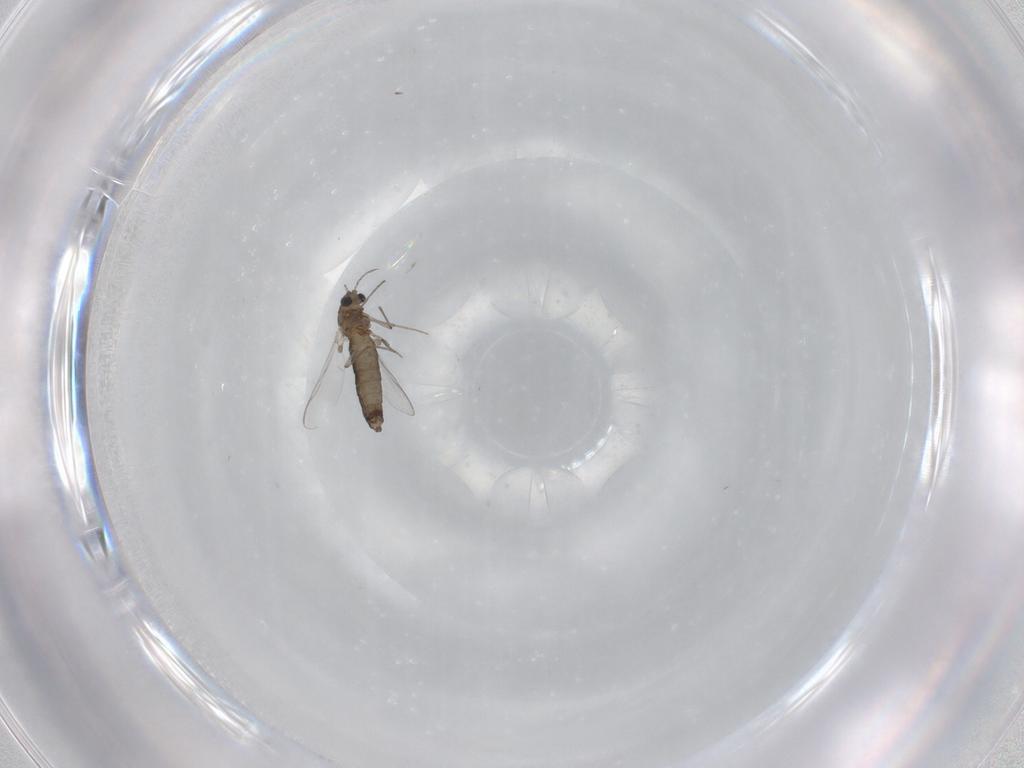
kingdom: Animalia
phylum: Arthropoda
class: Insecta
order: Diptera
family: Chironomidae
